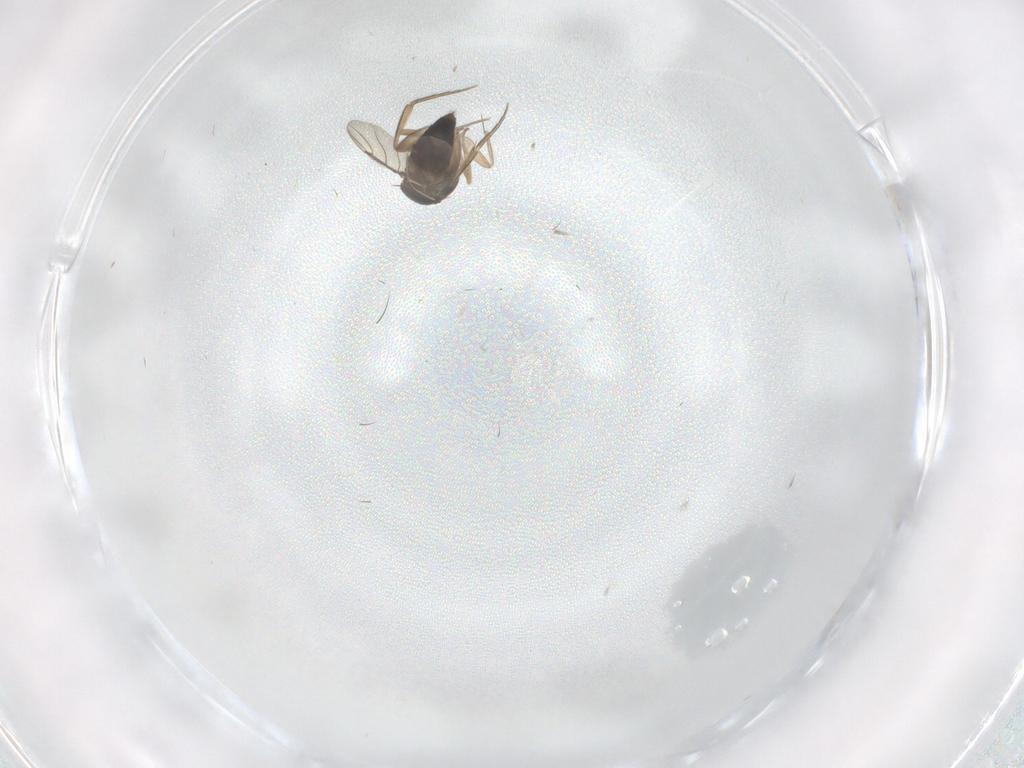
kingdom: Animalia
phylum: Arthropoda
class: Insecta
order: Diptera
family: Phoridae
